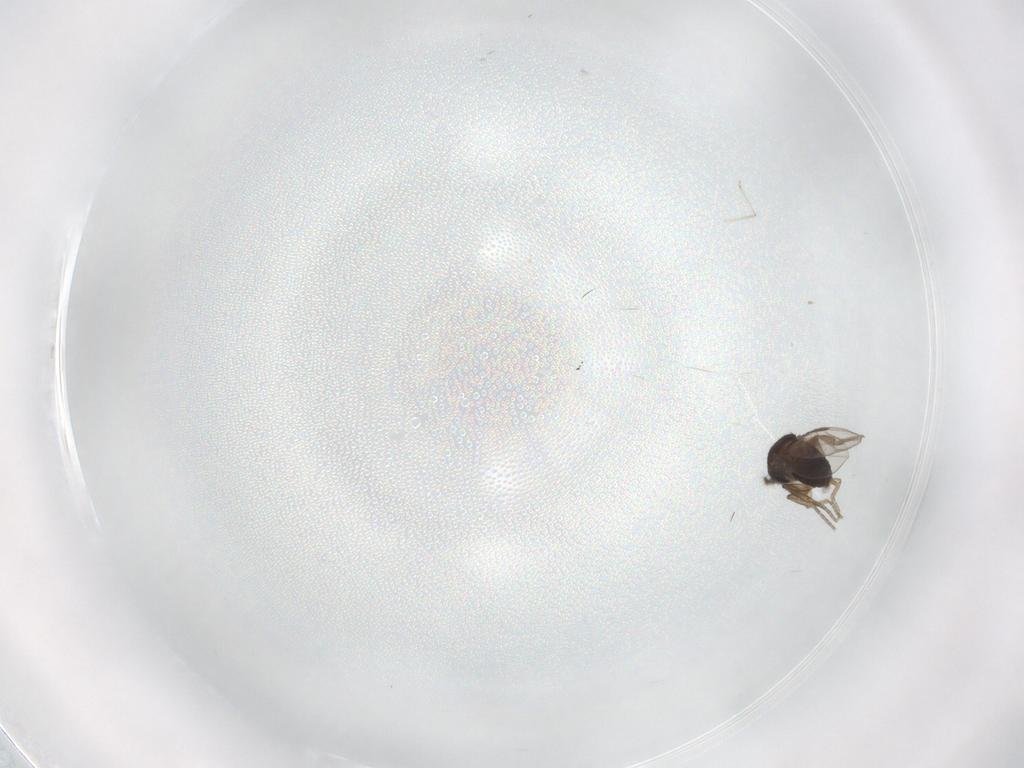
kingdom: Animalia
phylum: Arthropoda
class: Insecta
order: Diptera
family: Phoridae
